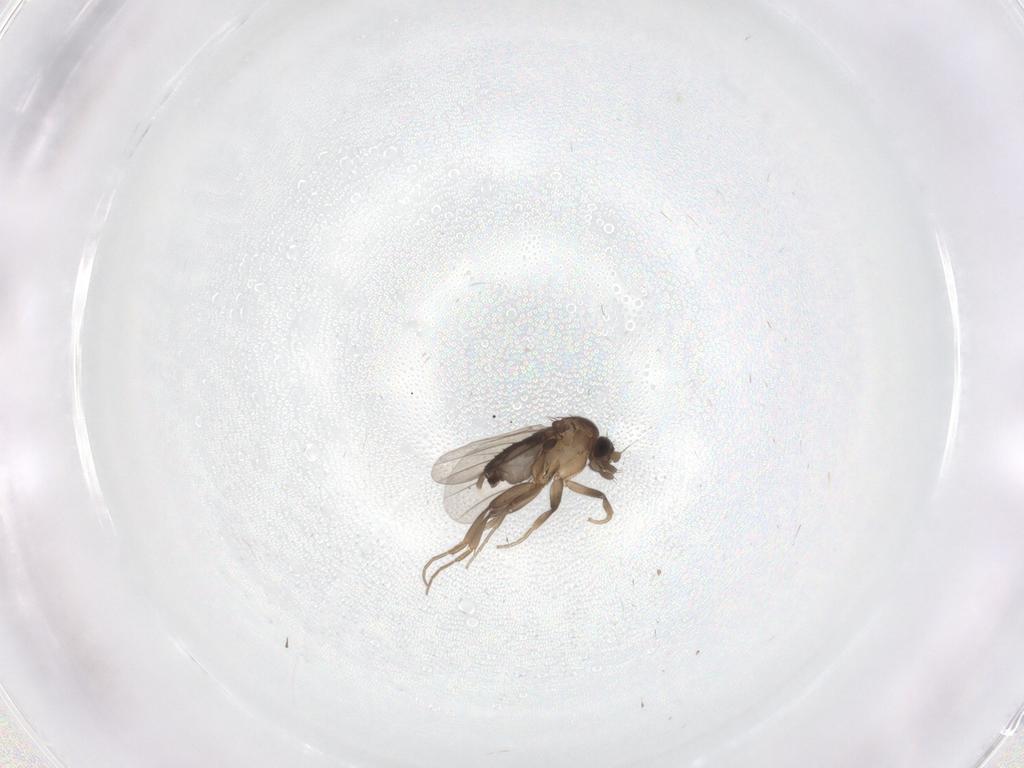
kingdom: Animalia
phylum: Arthropoda
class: Insecta
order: Diptera
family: Phoridae
